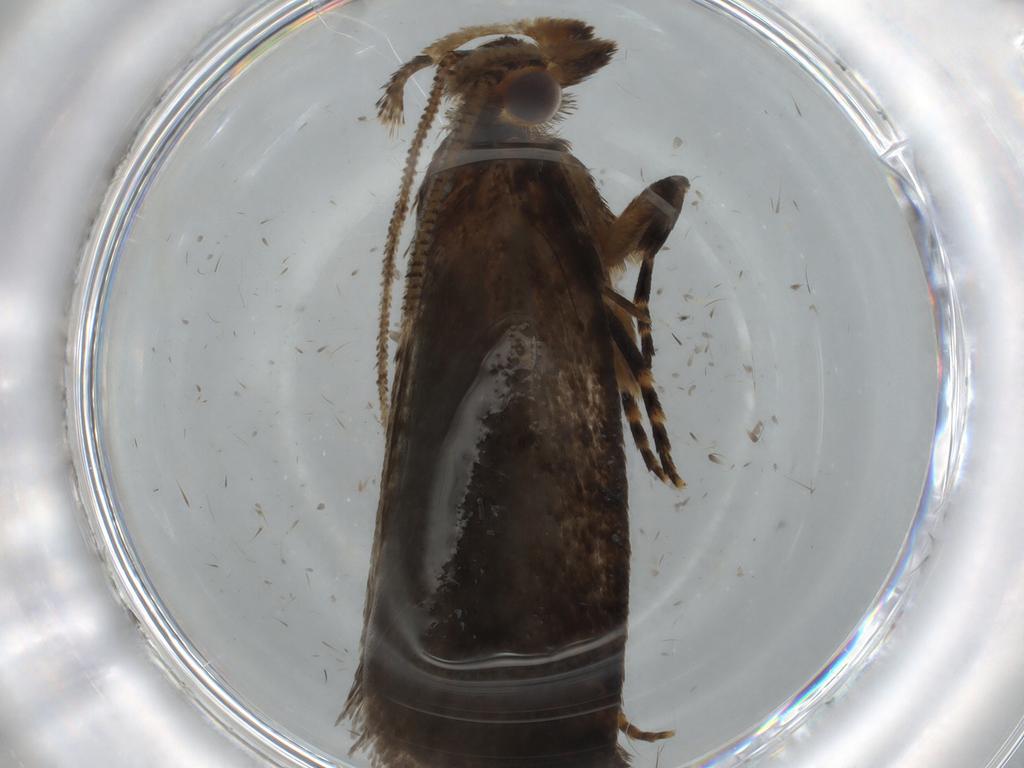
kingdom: Animalia
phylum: Arthropoda
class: Insecta
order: Lepidoptera
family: Tineidae
